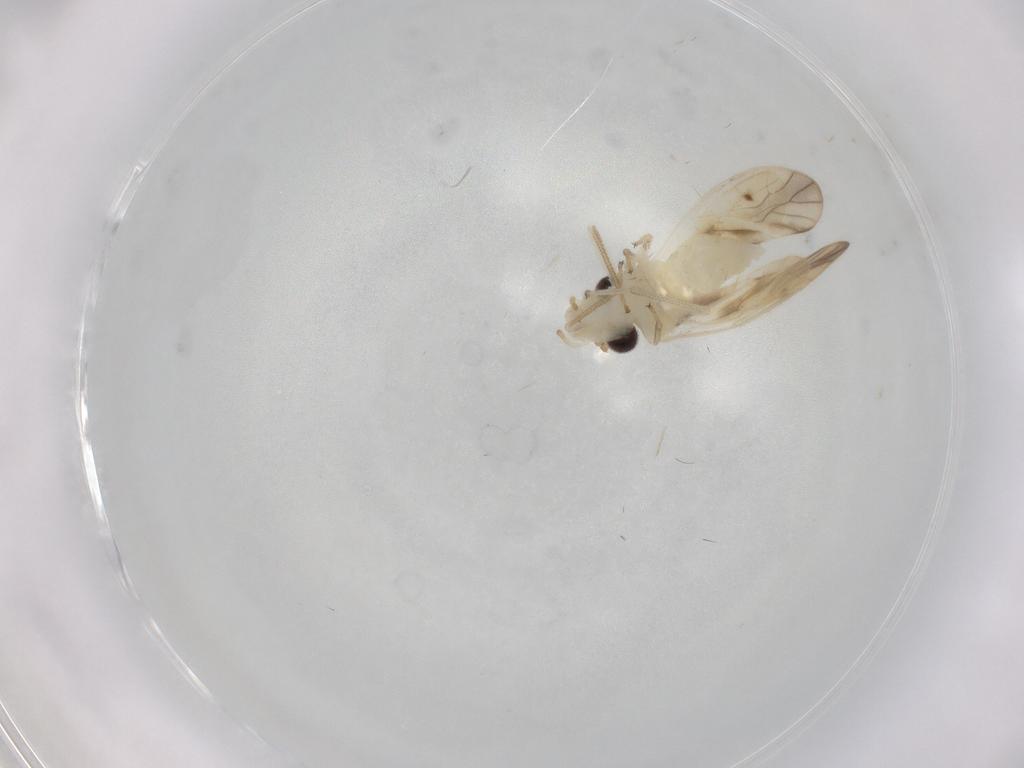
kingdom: Animalia
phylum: Arthropoda
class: Insecta
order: Psocodea
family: Caeciliusidae
